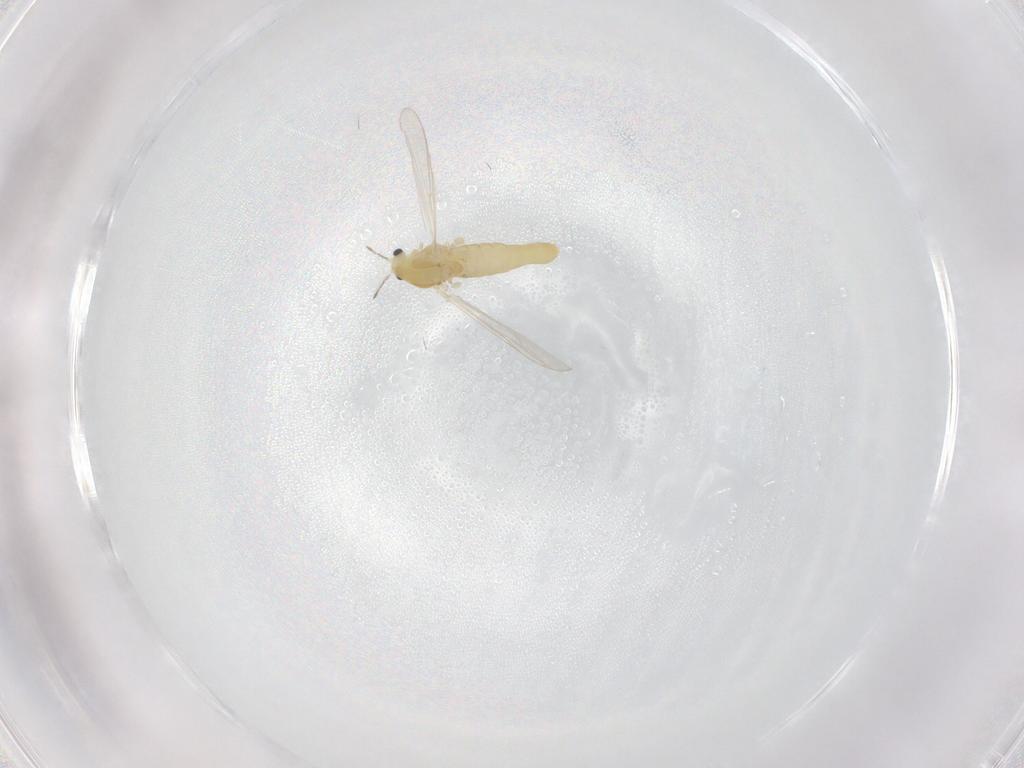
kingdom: Animalia
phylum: Arthropoda
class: Insecta
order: Diptera
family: Chironomidae
